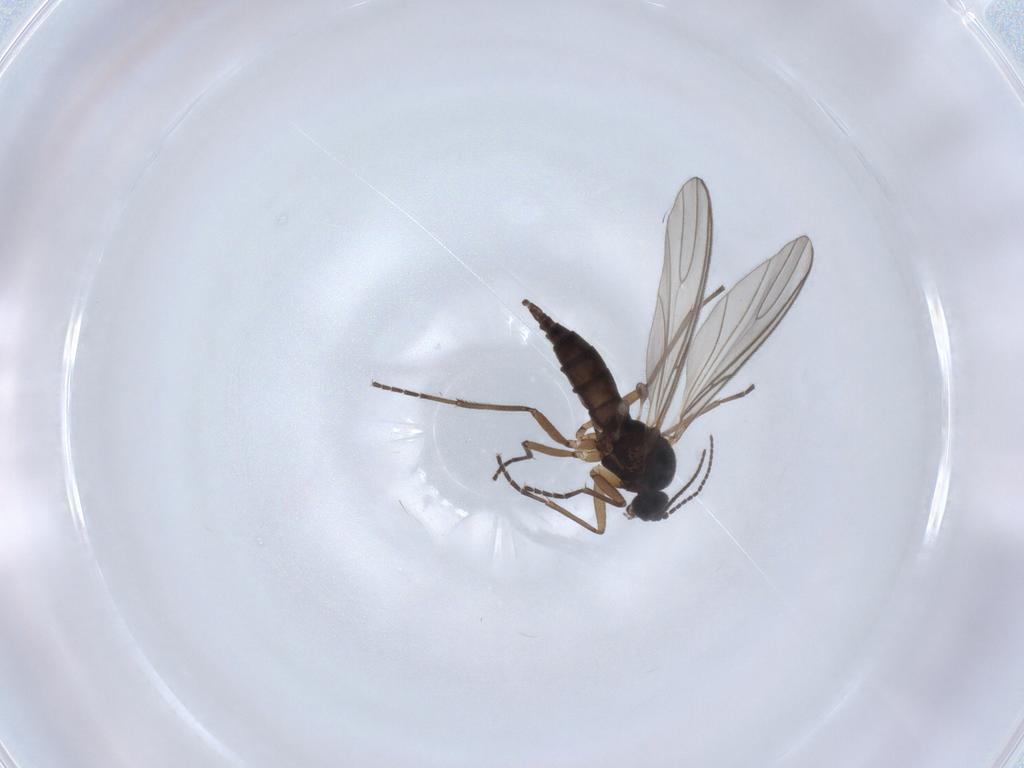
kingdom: Animalia
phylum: Arthropoda
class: Insecta
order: Diptera
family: Sciaridae
